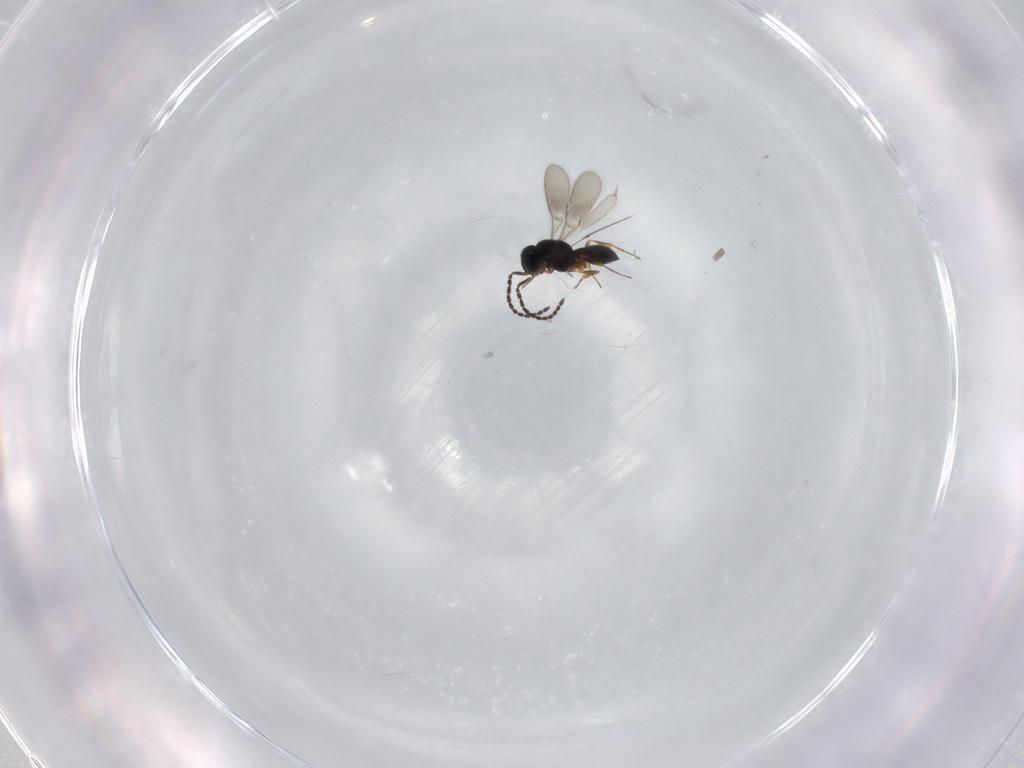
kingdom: Animalia
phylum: Arthropoda
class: Insecta
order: Hymenoptera
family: Scelionidae
